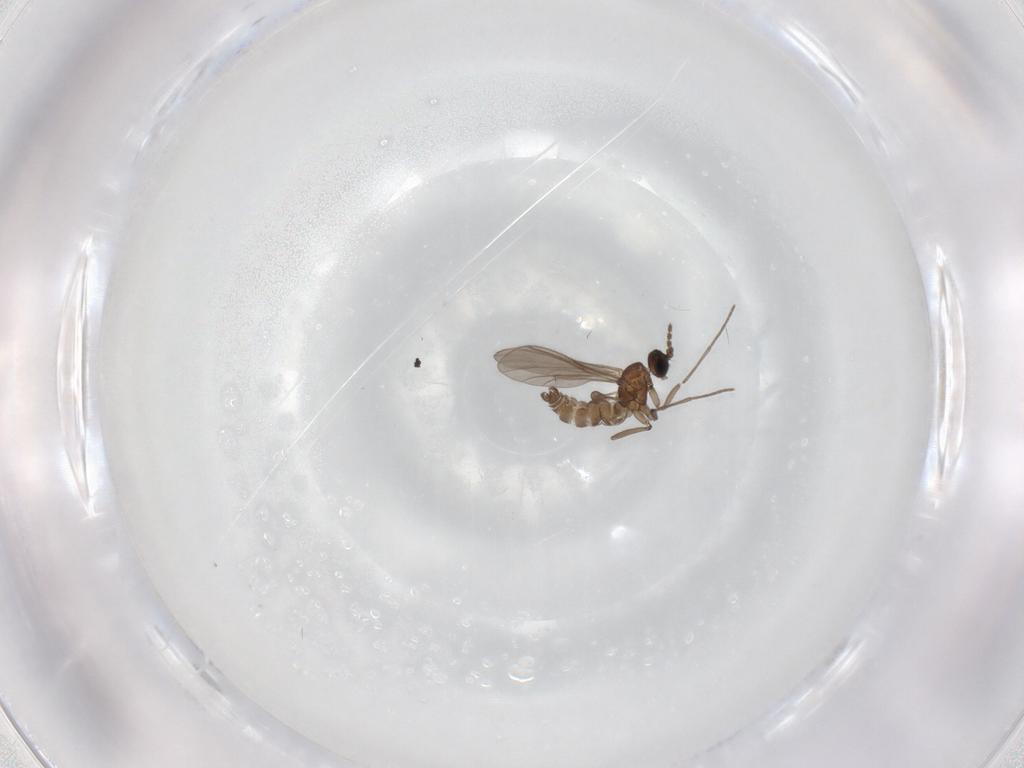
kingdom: Animalia
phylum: Arthropoda
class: Insecta
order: Diptera
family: Cecidomyiidae
